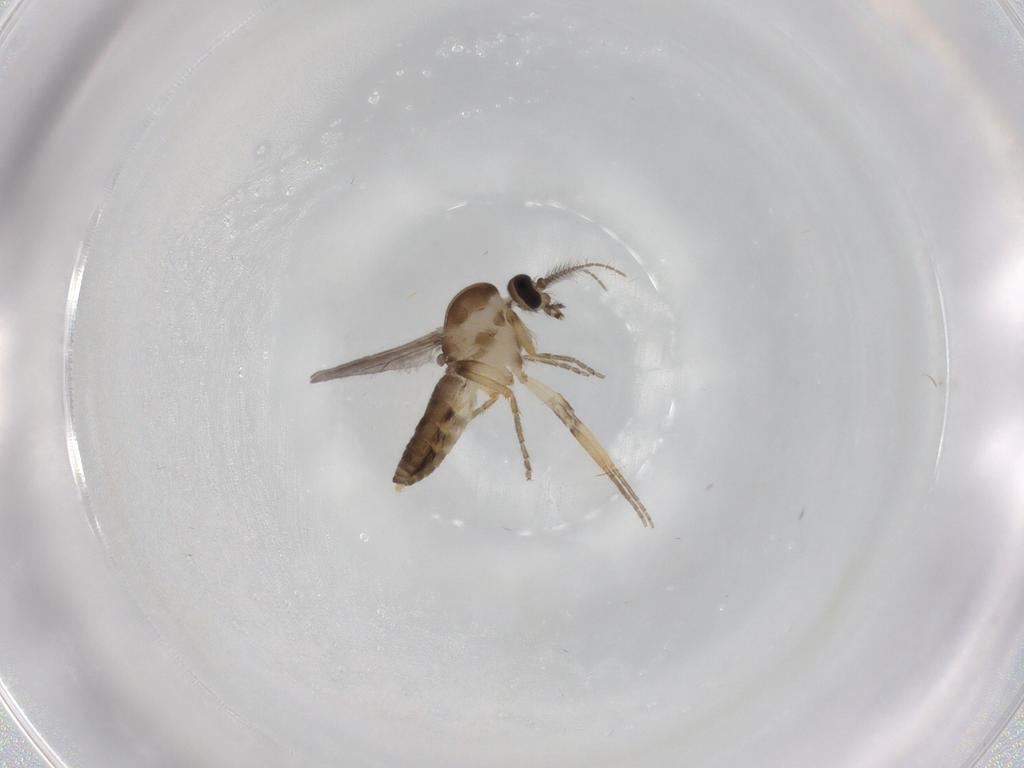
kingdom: Animalia
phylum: Arthropoda
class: Insecta
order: Diptera
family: Ceratopogonidae
